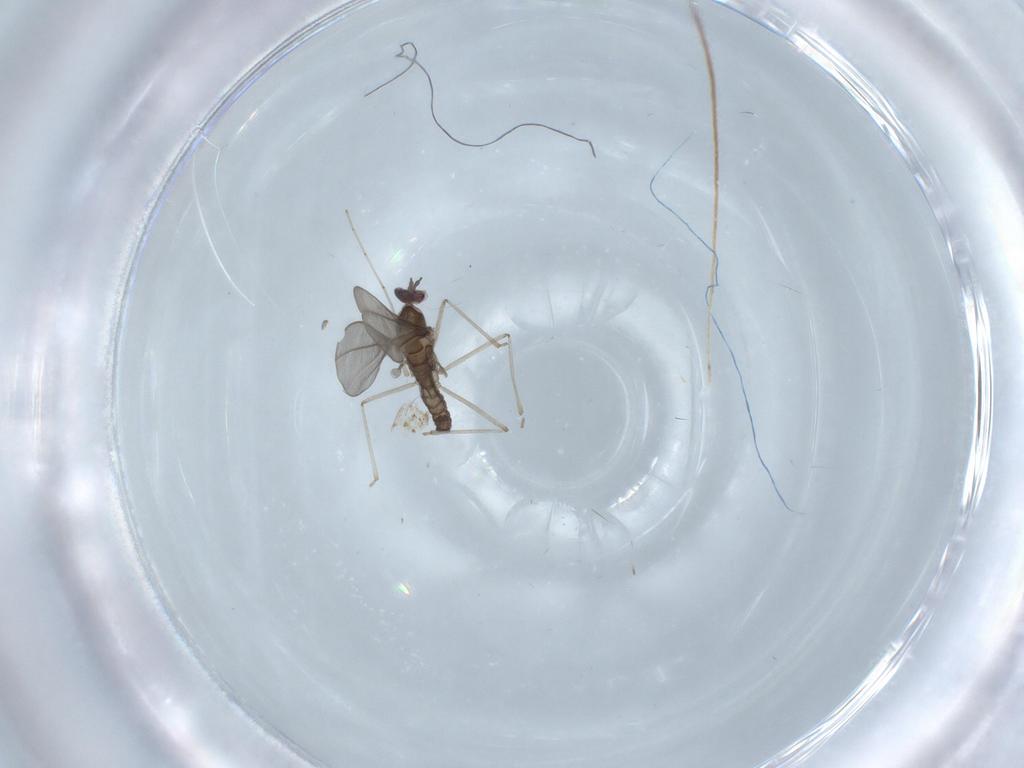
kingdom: Animalia
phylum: Arthropoda
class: Insecta
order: Diptera
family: Cecidomyiidae
